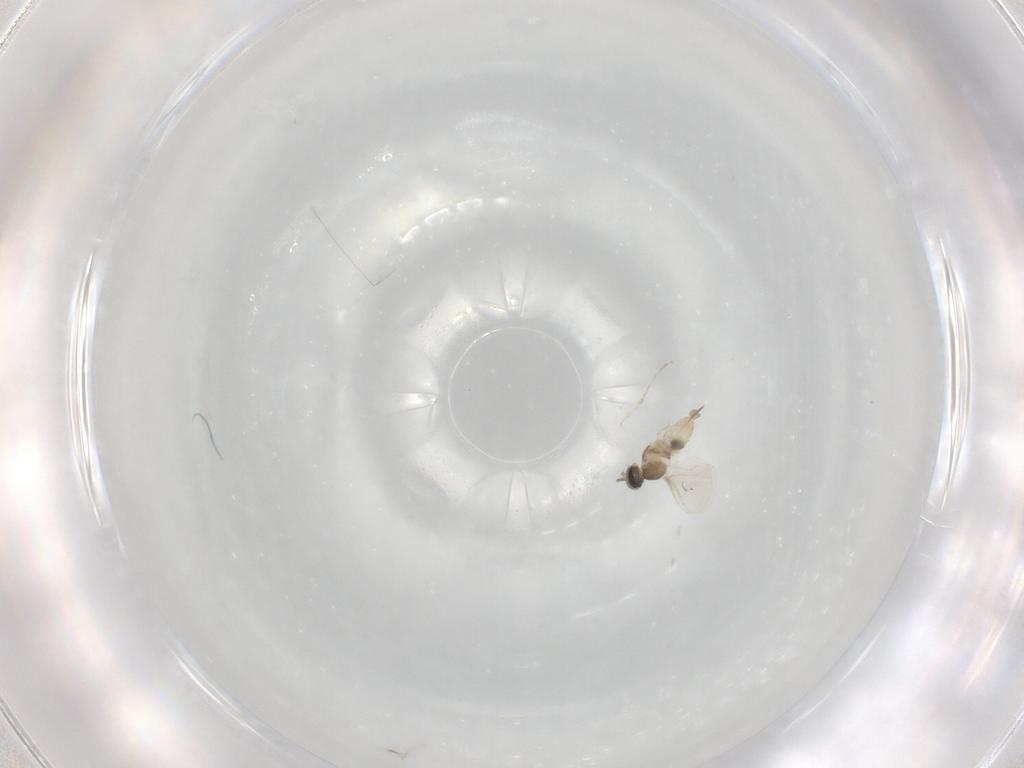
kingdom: Animalia
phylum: Arthropoda
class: Insecta
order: Diptera
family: Cecidomyiidae
